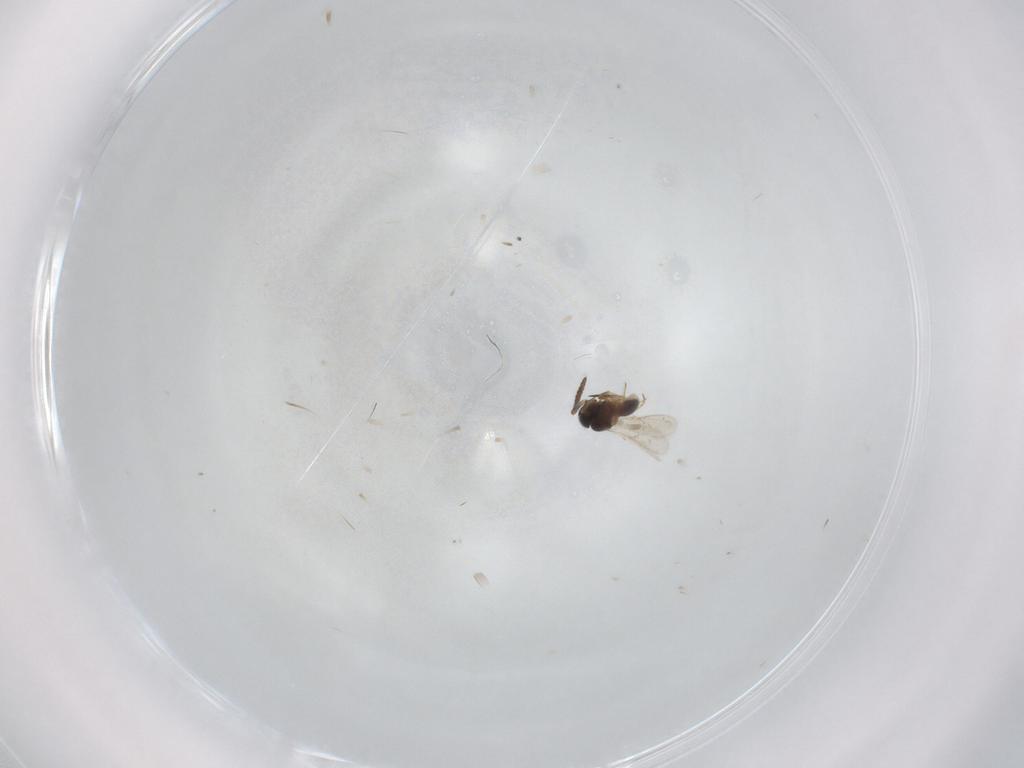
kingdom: Animalia
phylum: Arthropoda
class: Insecta
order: Hymenoptera
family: Scelionidae
